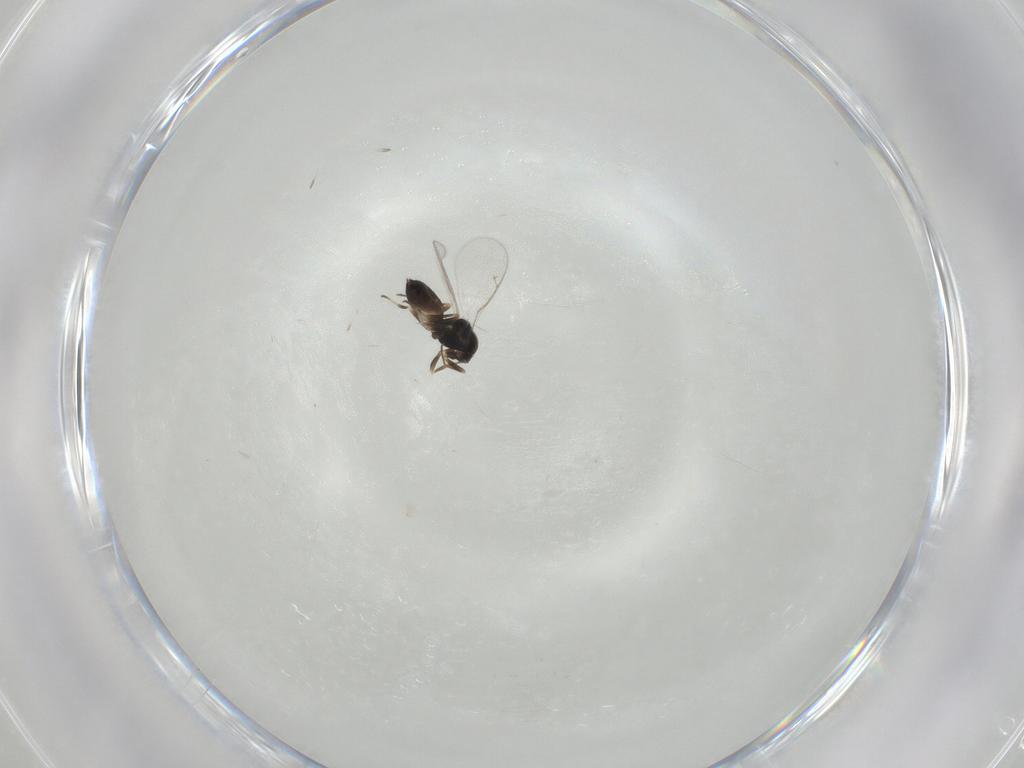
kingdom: Animalia
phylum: Arthropoda
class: Insecta
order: Hymenoptera
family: Eupelmidae
